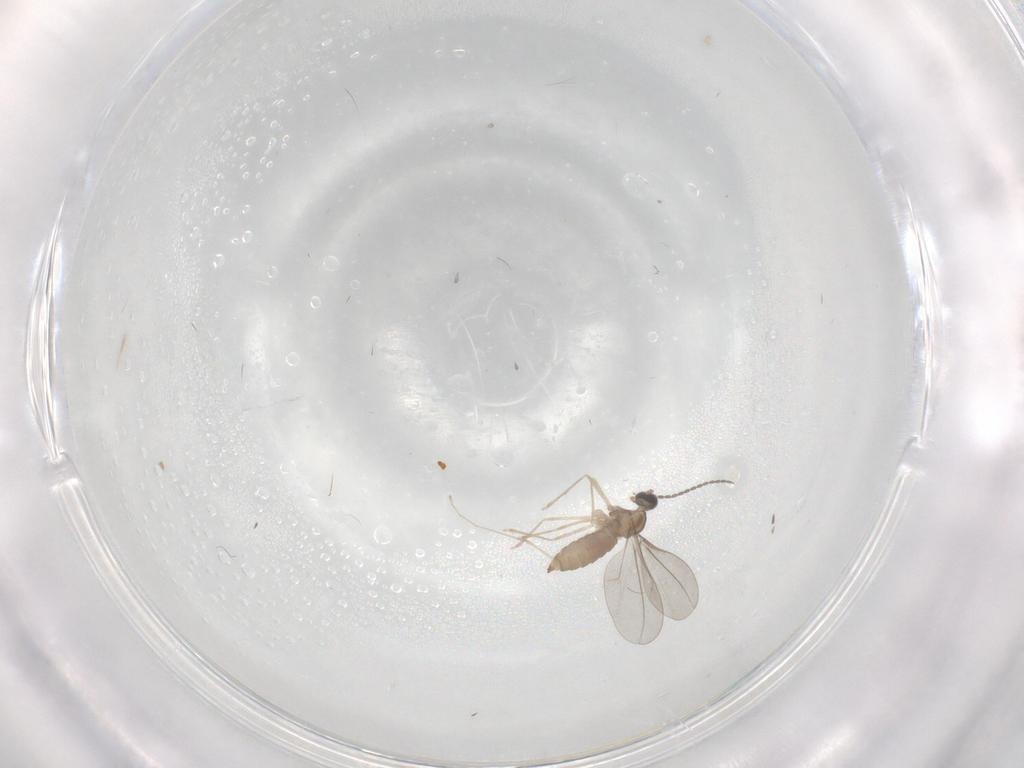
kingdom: Animalia
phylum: Arthropoda
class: Insecta
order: Diptera
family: Cecidomyiidae
